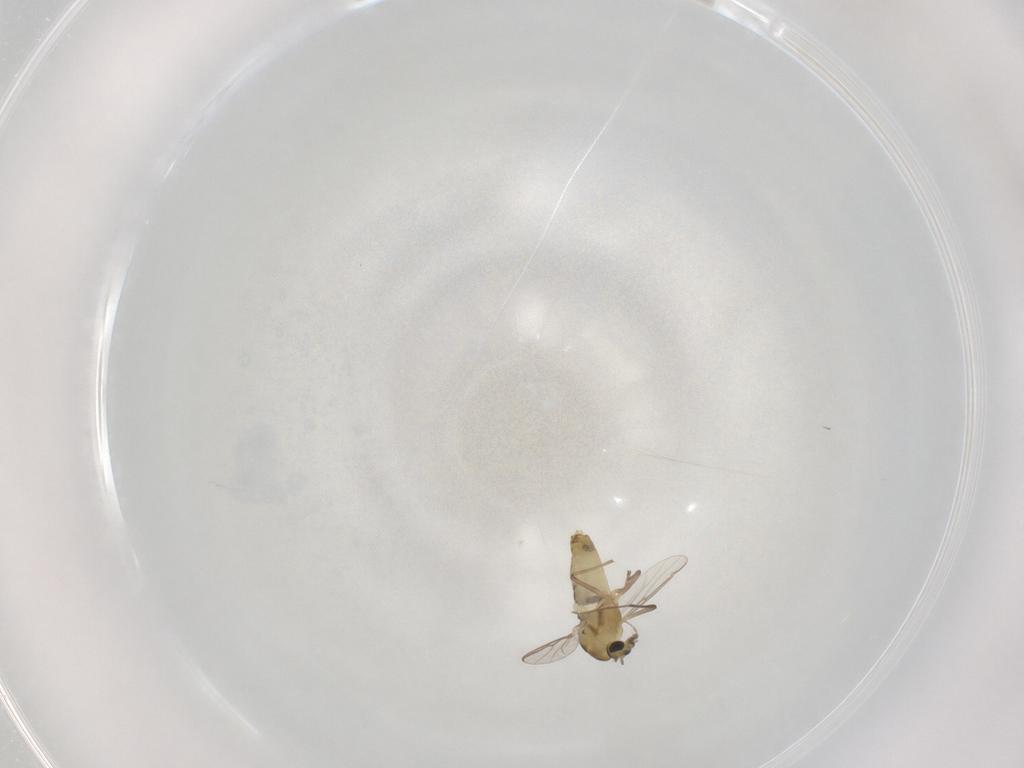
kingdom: Animalia
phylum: Arthropoda
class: Insecta
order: Diptera
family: Chironomidae
